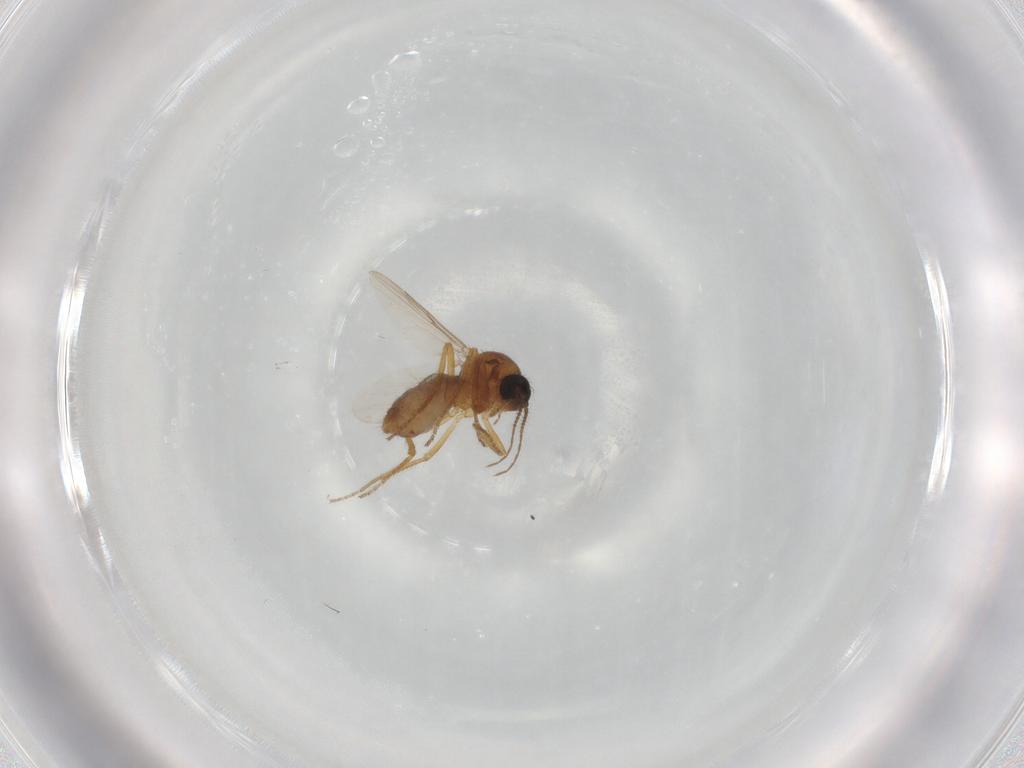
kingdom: Animalia
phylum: Arthropoda
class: Insecta
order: Diptera
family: Ceratopogonidae
